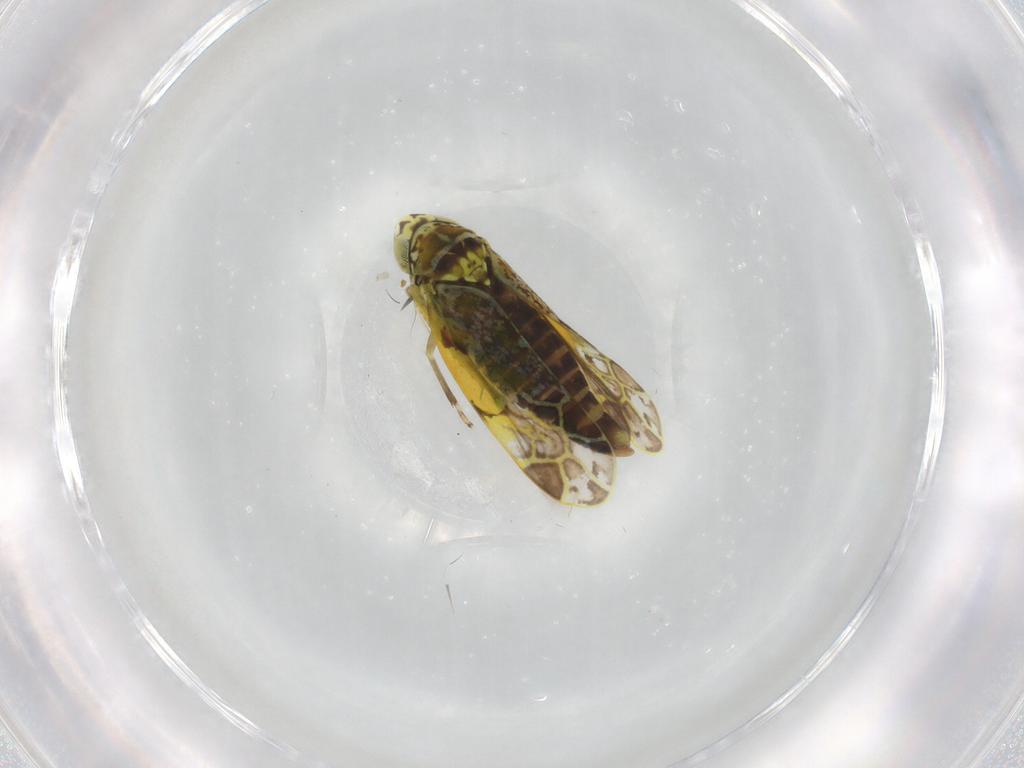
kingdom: Animalia
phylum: Arthropoda
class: Insecta
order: Hemiptera
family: Cicadellidae
